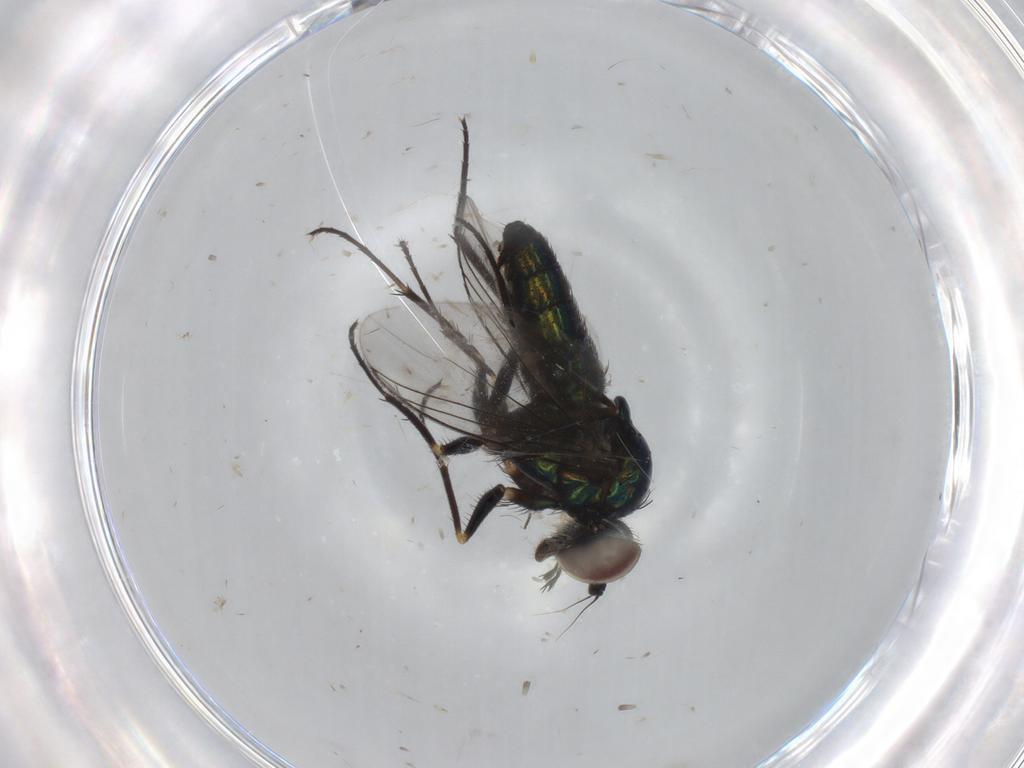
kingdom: Animalia
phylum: Arthropoda
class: Insecta
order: Diptera
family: Dolichopodidae
